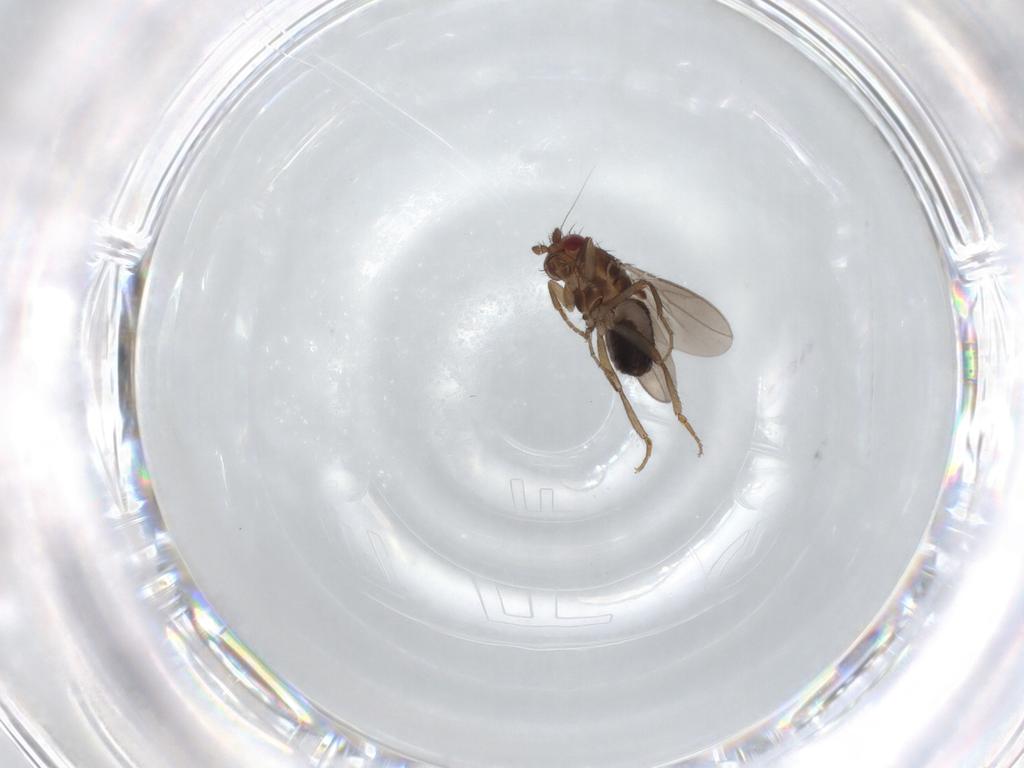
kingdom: Animalia
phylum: Arthropoda
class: Insecta
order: Diptera
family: Sphaeroceridae
